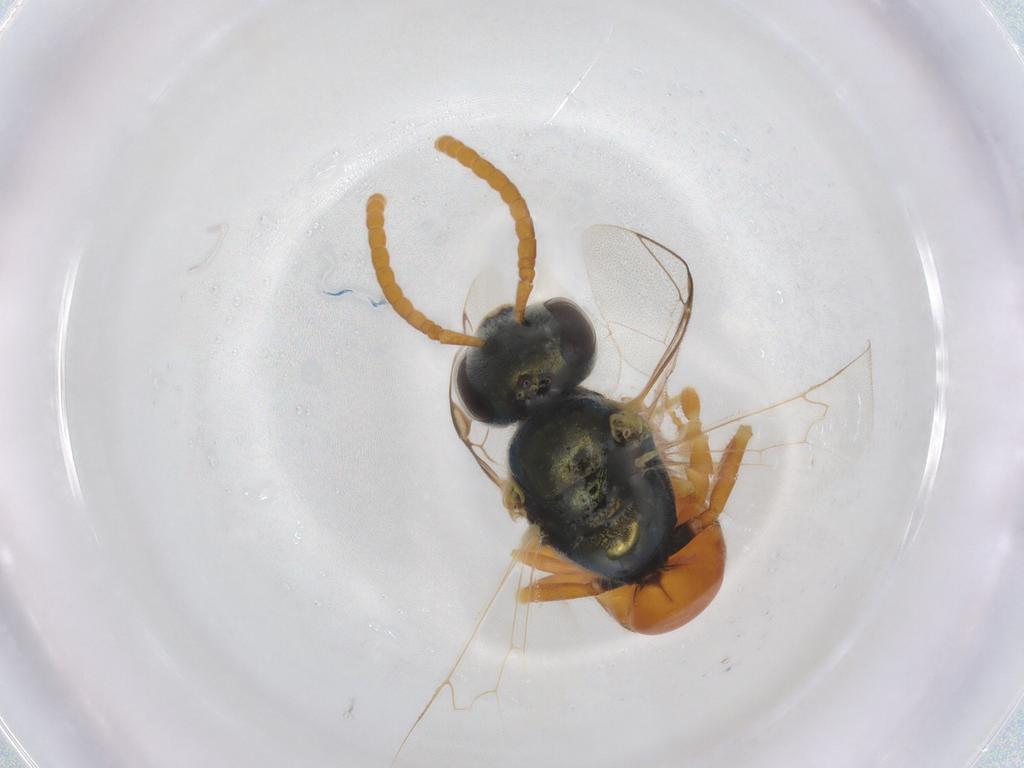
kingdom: Animalia
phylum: Arthropoda
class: Insecta
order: Hymenoptera
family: Halictidae
